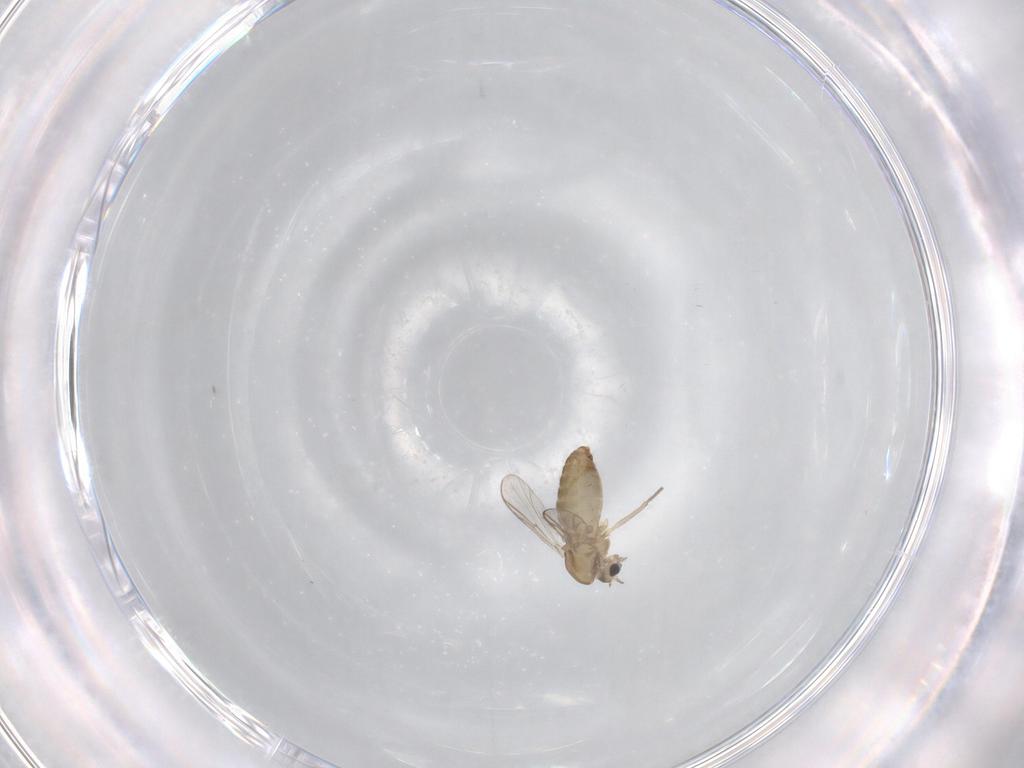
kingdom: Animalia
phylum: Arthropoda
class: Insecta
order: Diptera
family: Chironomidae
